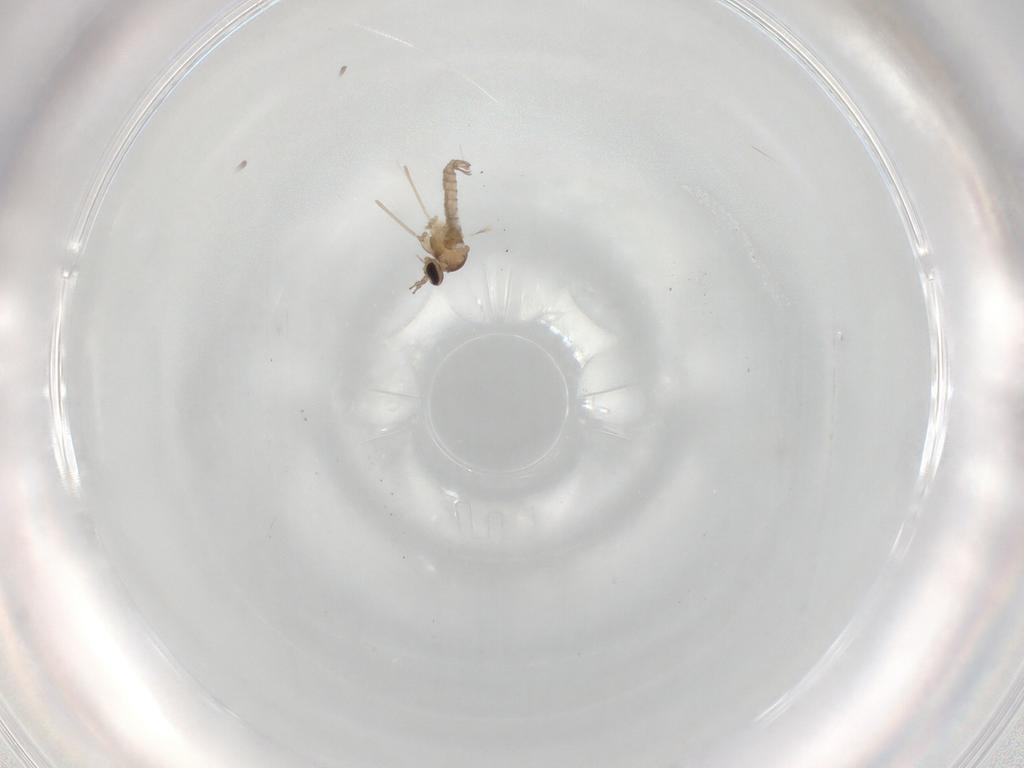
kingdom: Animalia
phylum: Arthropoda
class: Insecta
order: Diptera
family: Cecidomyiidae
